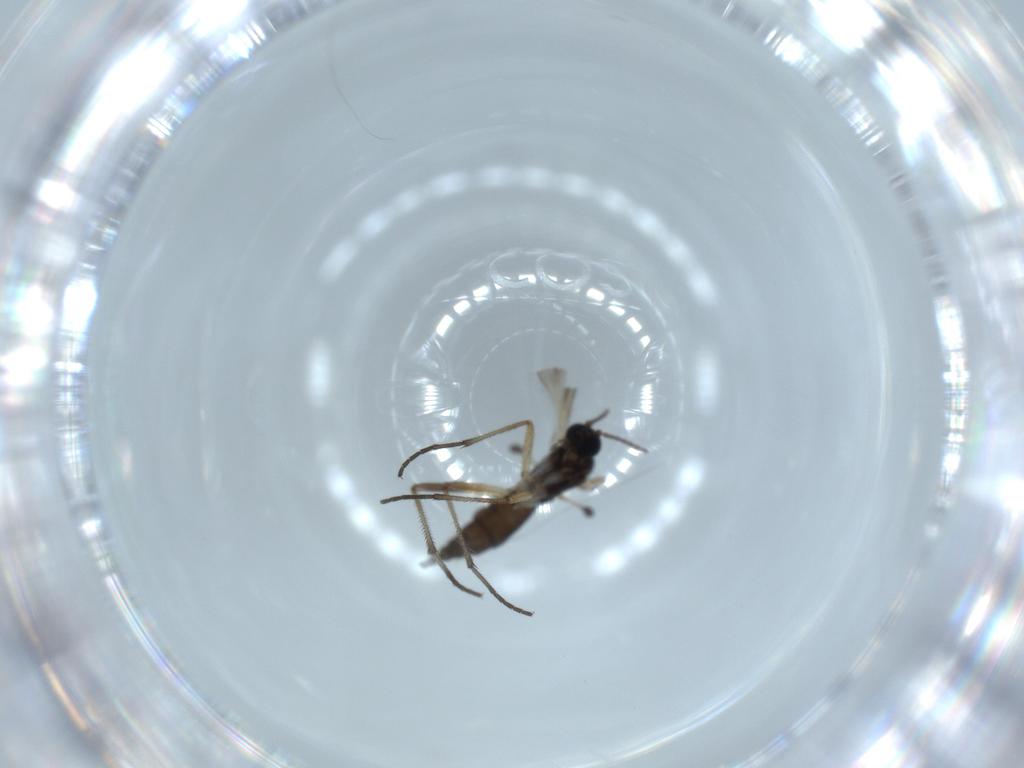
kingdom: Animalia
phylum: Arthropoda
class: Insecta
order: Diptera
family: Sciaridae
